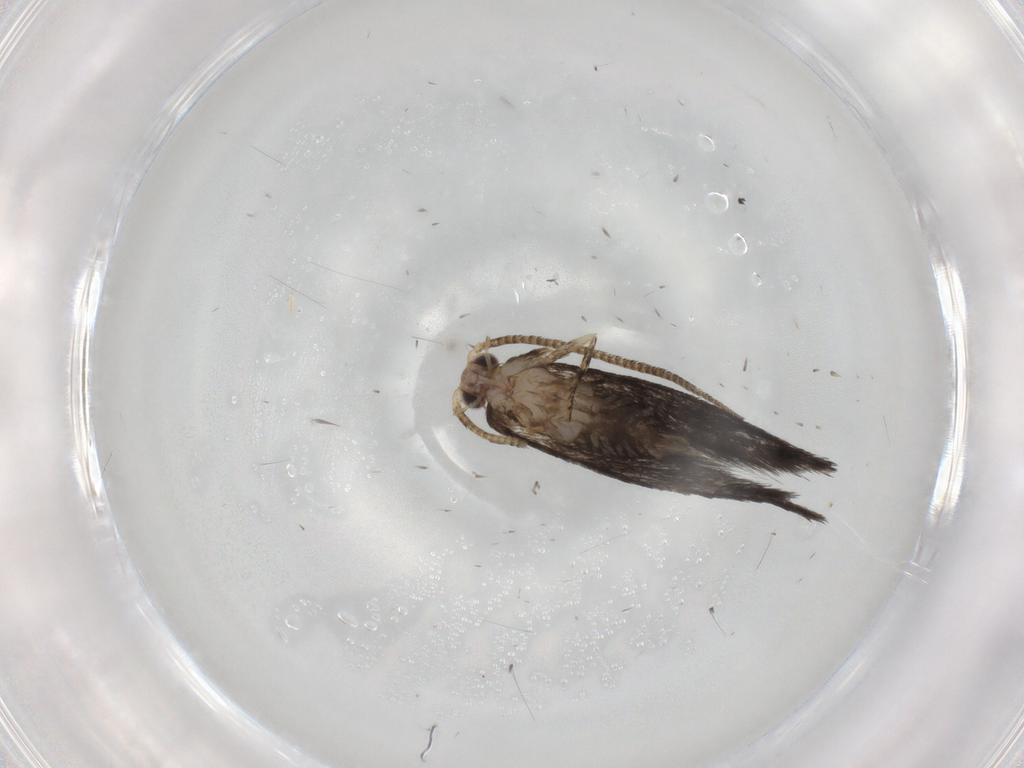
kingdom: Animalia
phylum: Arthropoda
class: Insecta
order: Lepidoptera
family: Tineidae
